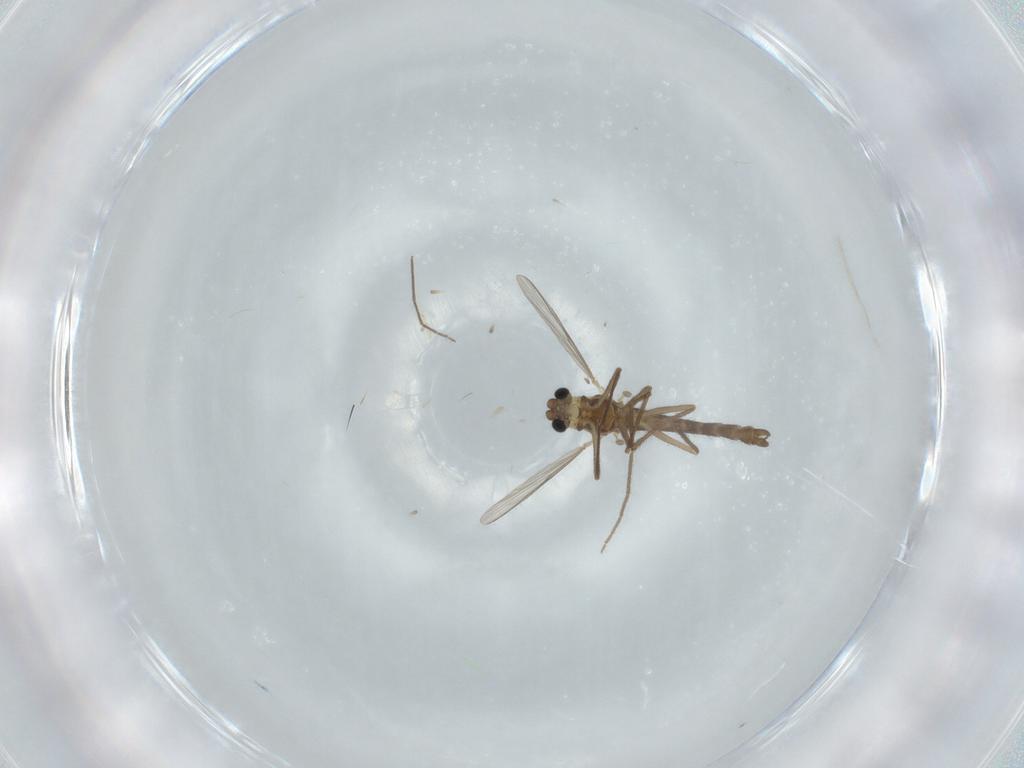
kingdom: Animalia
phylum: Arthropoda
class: Insecta
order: Diptera
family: Chironomidae
